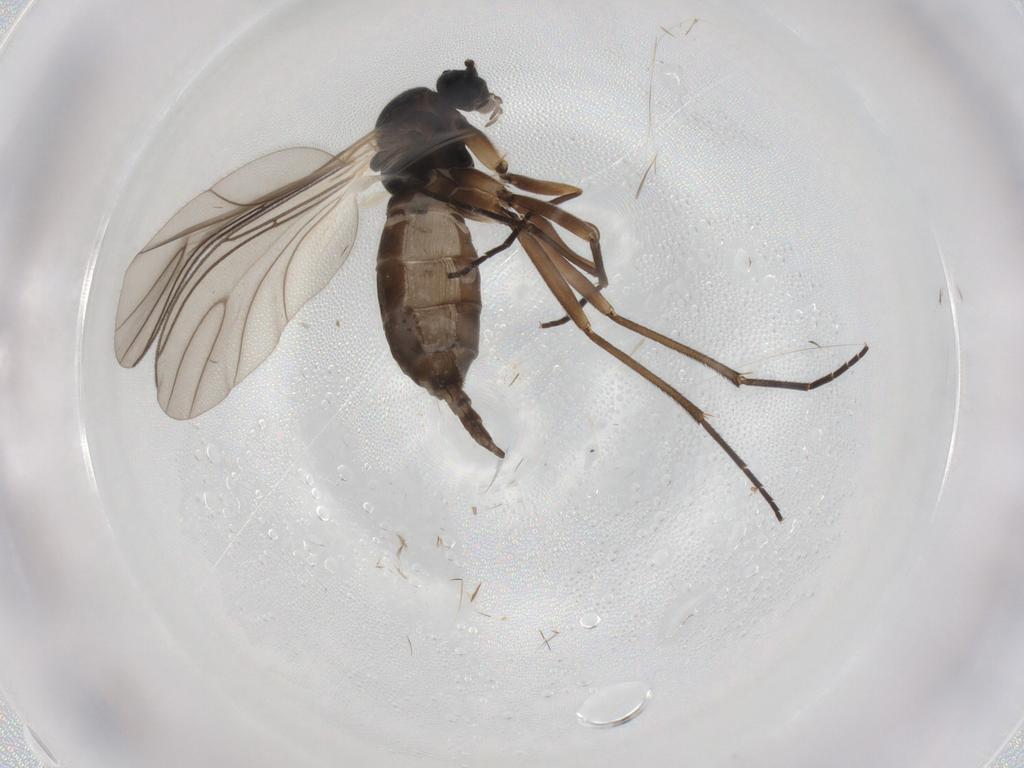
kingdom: Animalia
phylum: Arthropoda
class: Insecta
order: Diptera
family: Sciaridae
